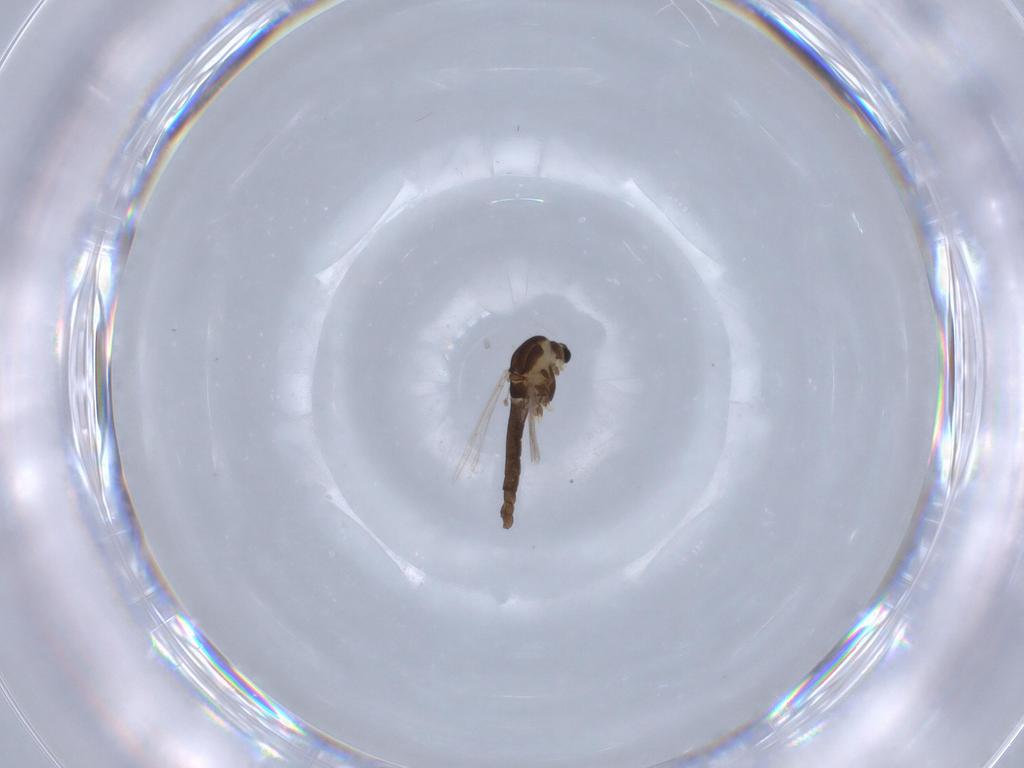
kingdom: Animalia
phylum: Arthropoda
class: Insecta
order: Diptera
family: Chironomidae
